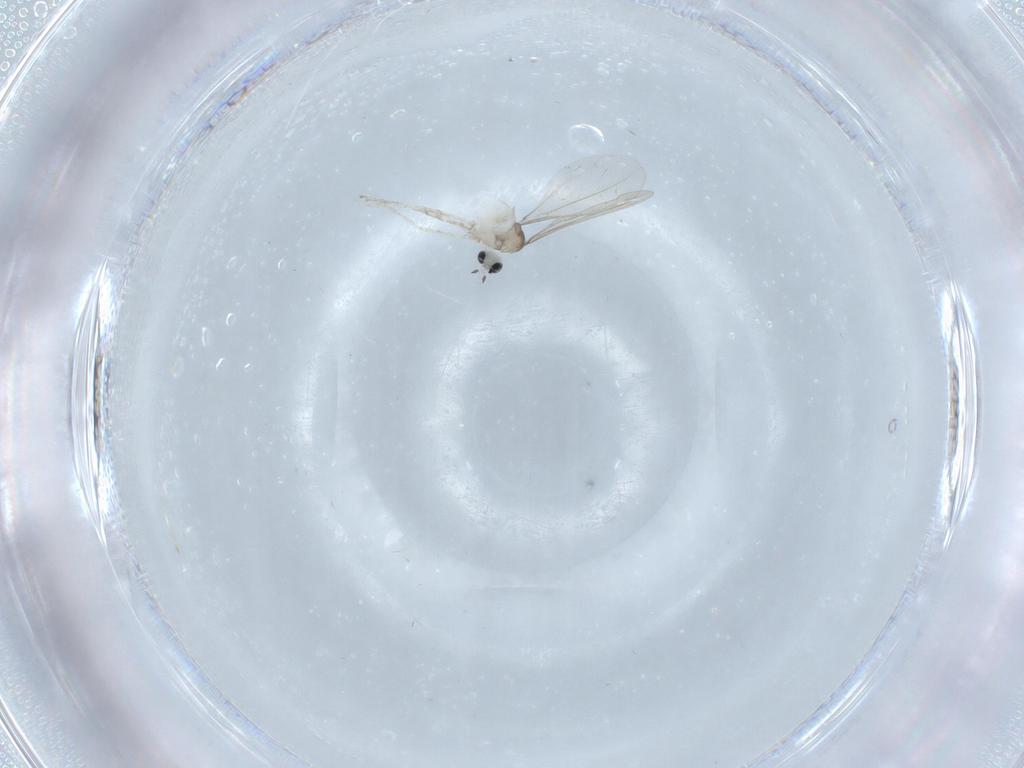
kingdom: Animalia
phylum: Arthropoda
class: Insecta
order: Diptera
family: Cecidomyiidae
